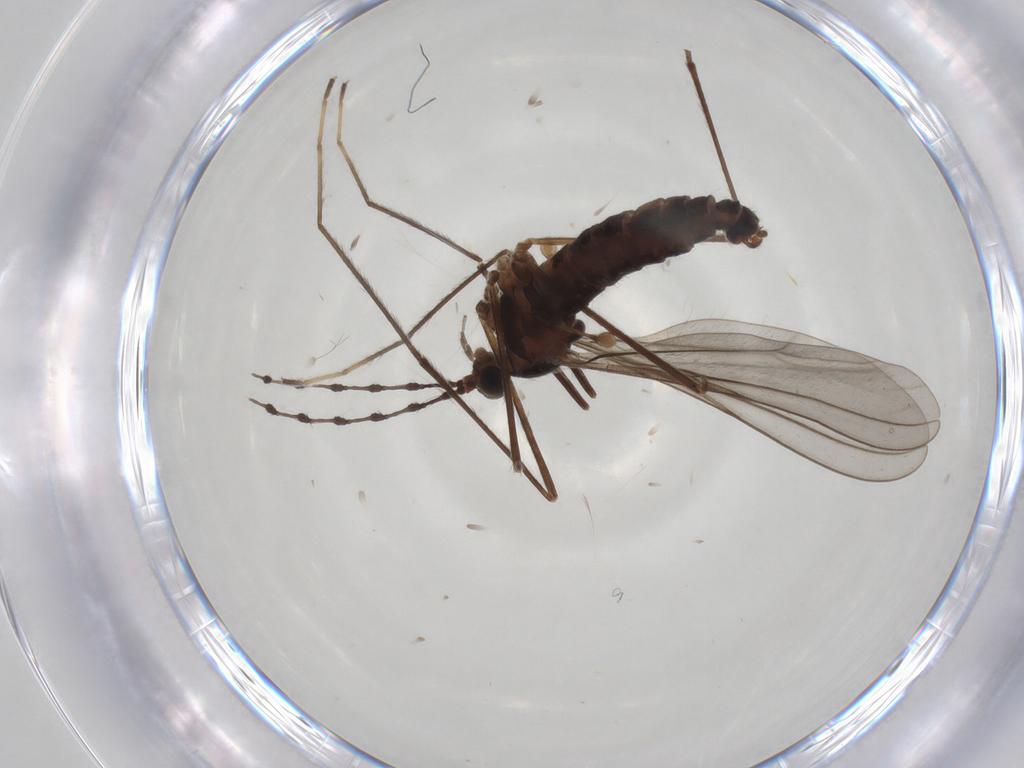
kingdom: Animalia
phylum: Arthropoda
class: Insecta
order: Diptera
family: Cecidomyiidae
